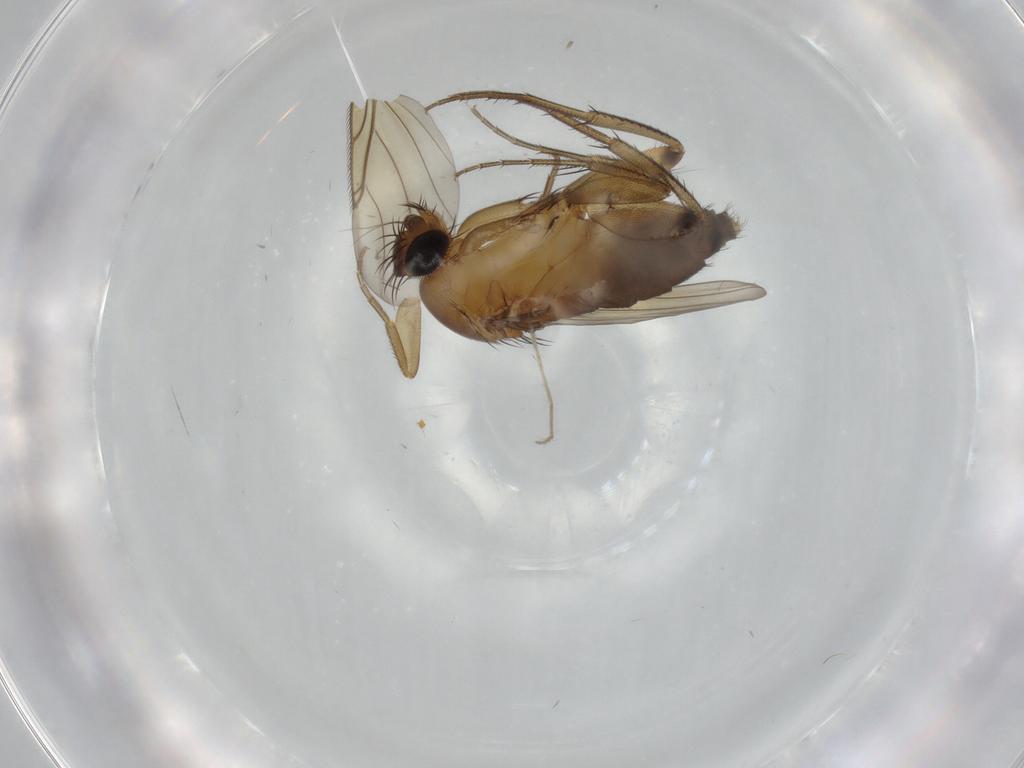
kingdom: Animalia
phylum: Arthropoda
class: Insecta
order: Diptera
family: Phoridae
